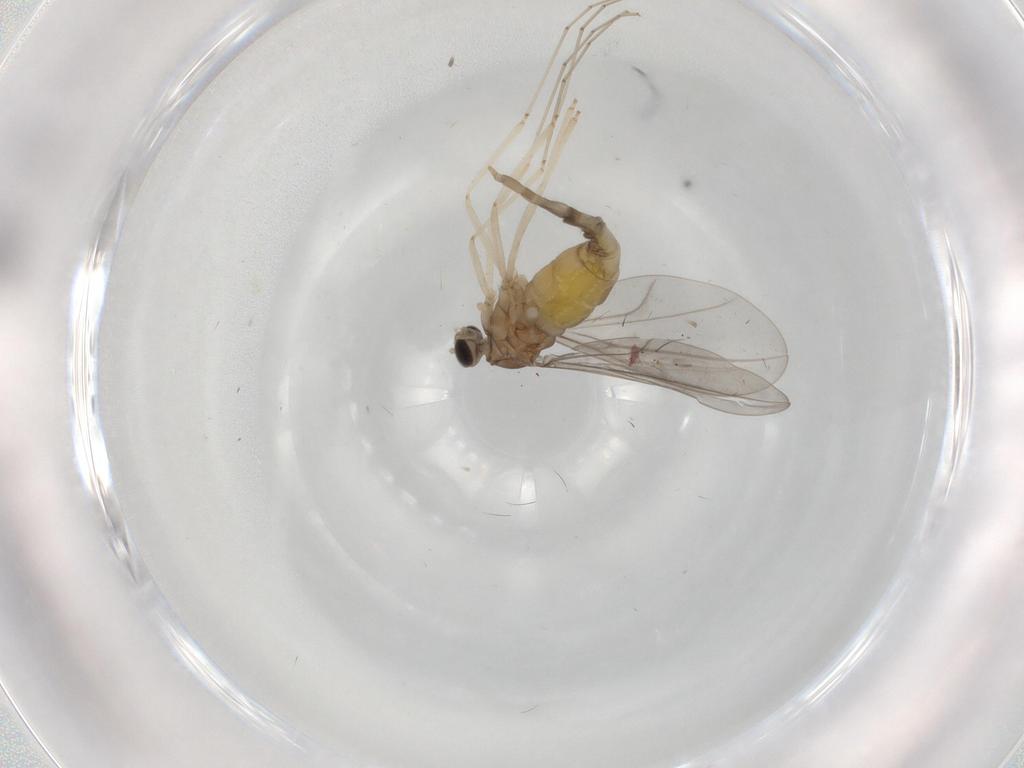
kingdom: Animalia
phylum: Arthropoda
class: Insecta
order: Diptera
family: Cecidomyiidae
